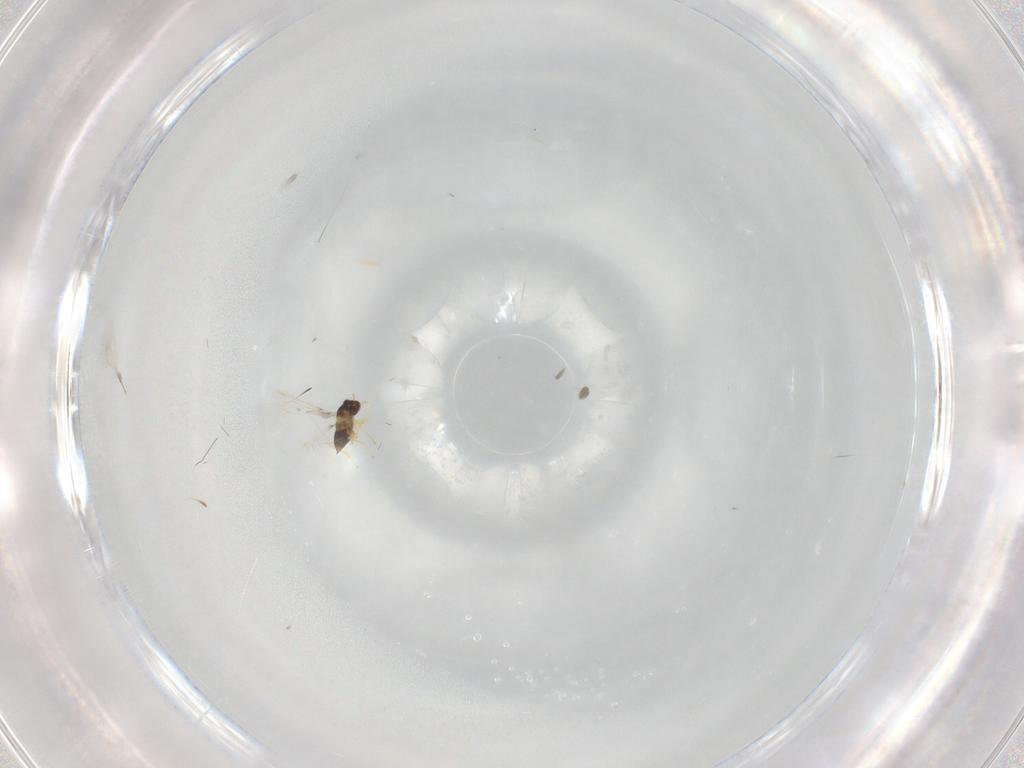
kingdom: Animalia
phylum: Arthropoda
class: Insecta
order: Hymenoptera
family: Mymaridae
